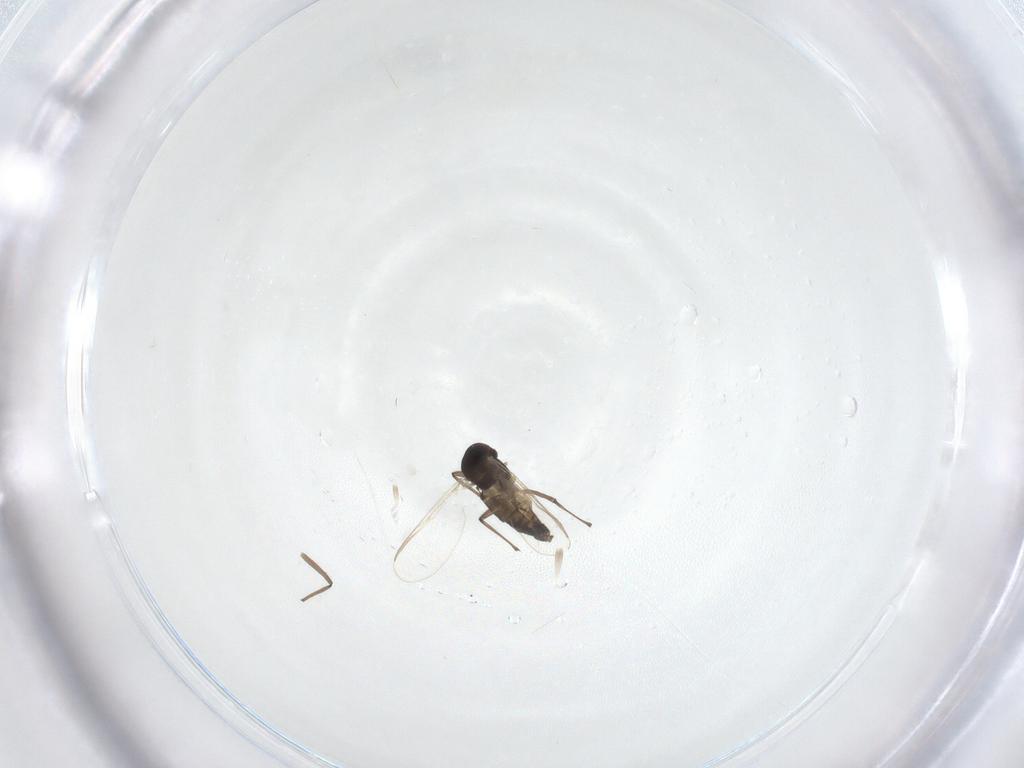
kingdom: Animalia
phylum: Arthropoda
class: Insecta
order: Diptera
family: Chironomidae
